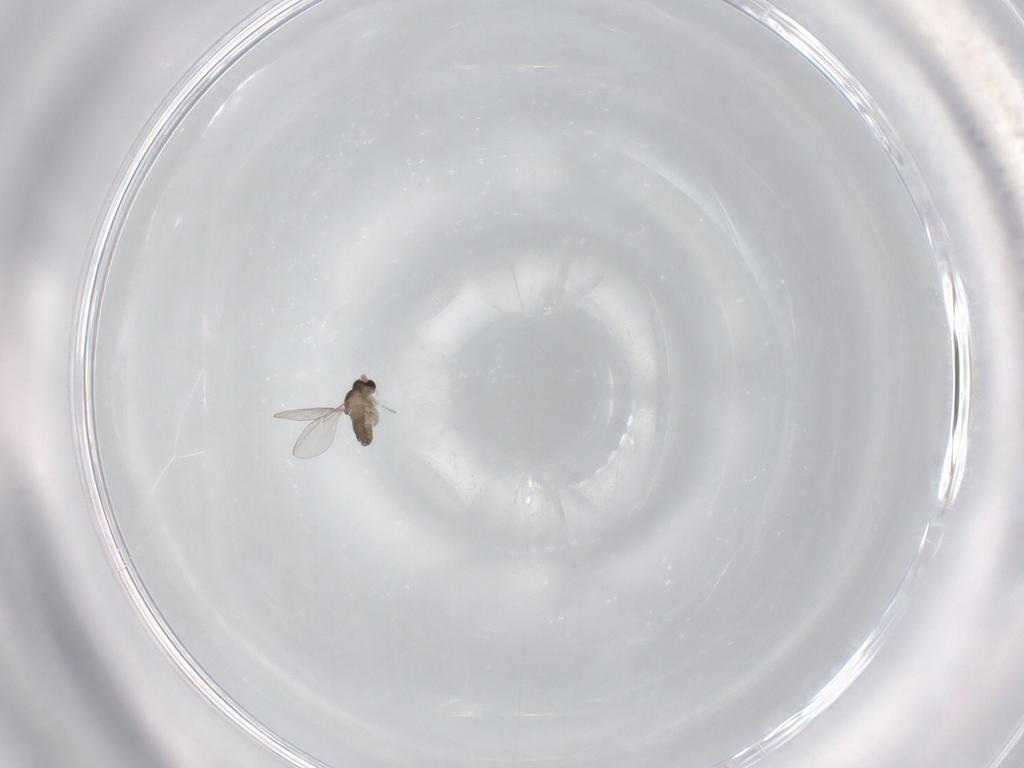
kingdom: Animalia
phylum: Arthropoda
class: Insecta
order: Diptera
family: Cecidomyiidae
